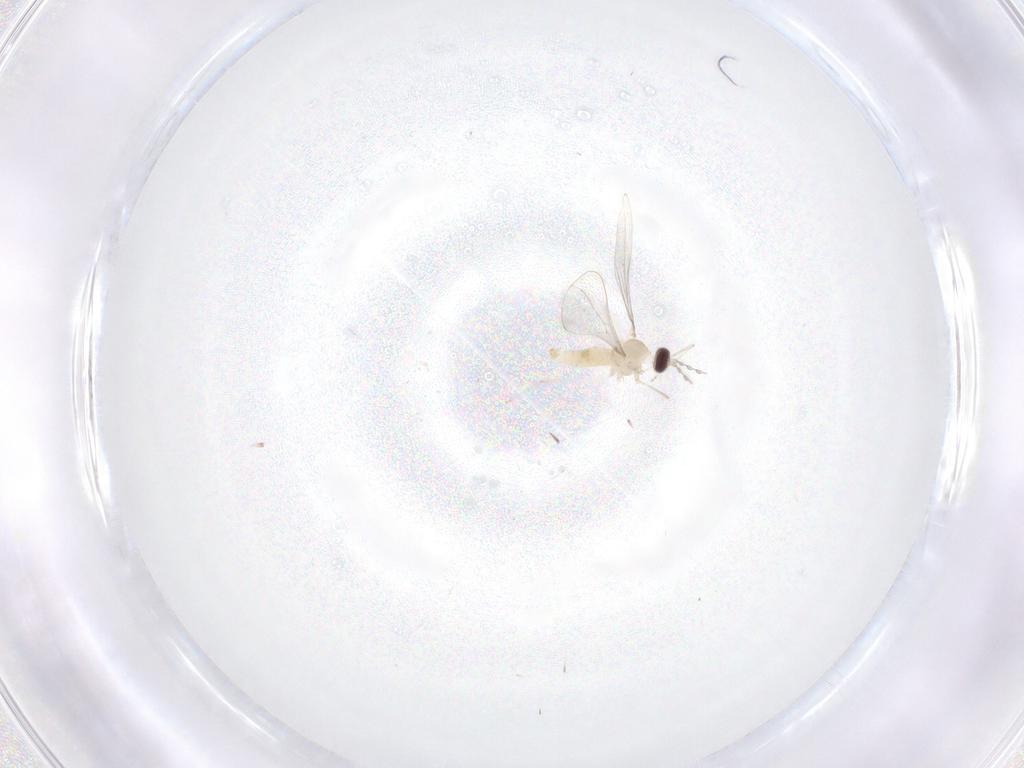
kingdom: Animalia
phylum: Arthropoda
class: Insecta
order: Diptera
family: Cecidomyiidae
